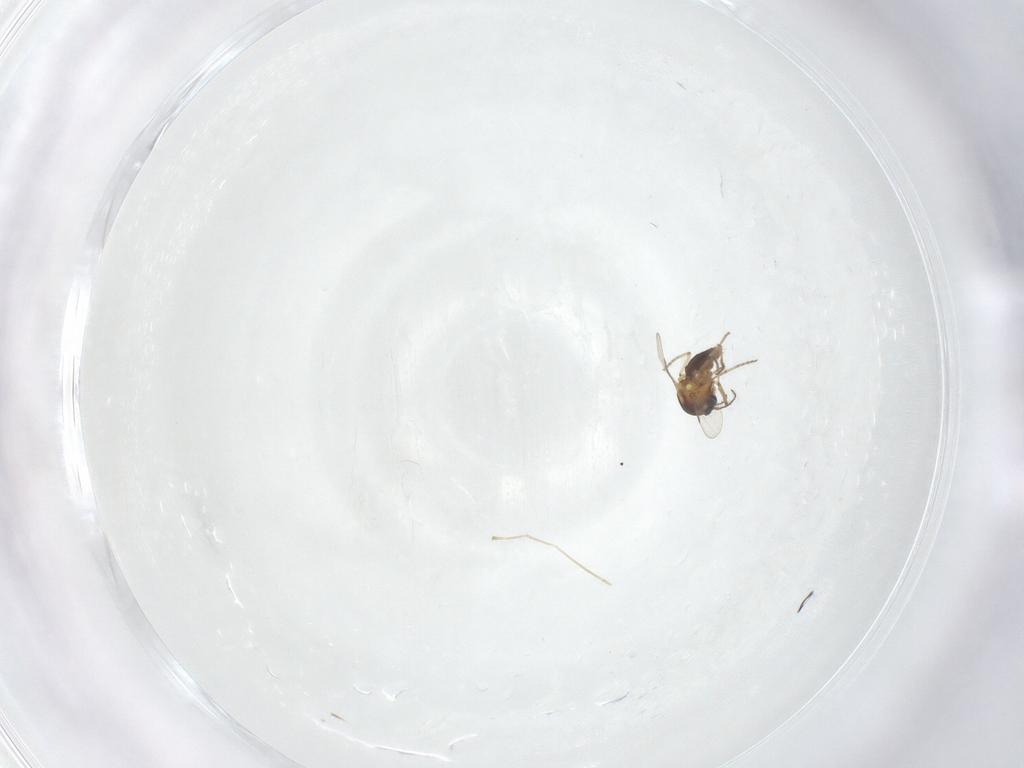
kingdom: Animalia
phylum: Arthropoda
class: Insecta
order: Diptera
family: Ceratopogonidae
